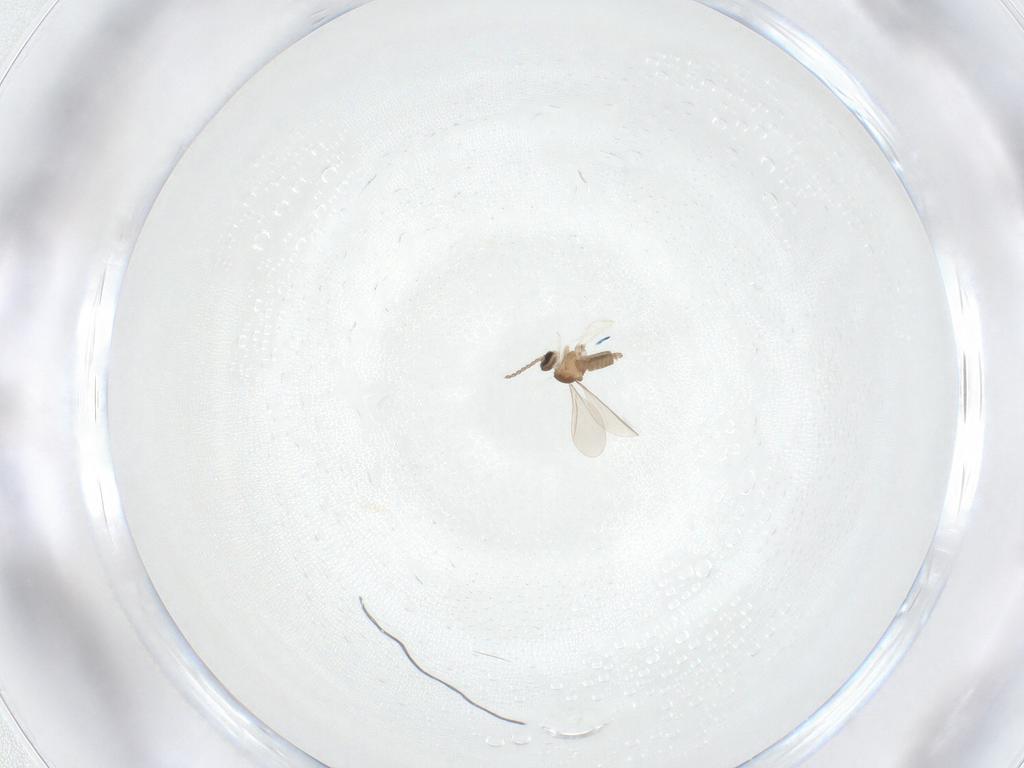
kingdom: Animalia
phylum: Arthropoda
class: Insecta
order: Diptera
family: Cecidomyiidae
